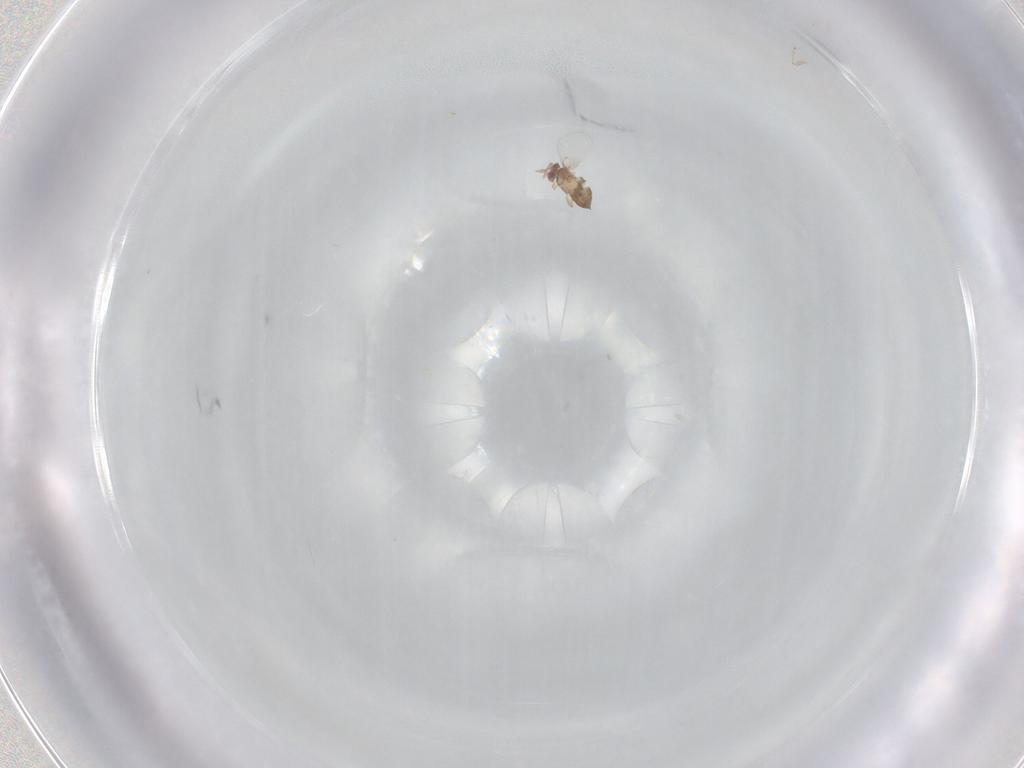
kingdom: Animalia
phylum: Arthropoda
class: Insecta
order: Hymenoptera
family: Trichogrammatidae
